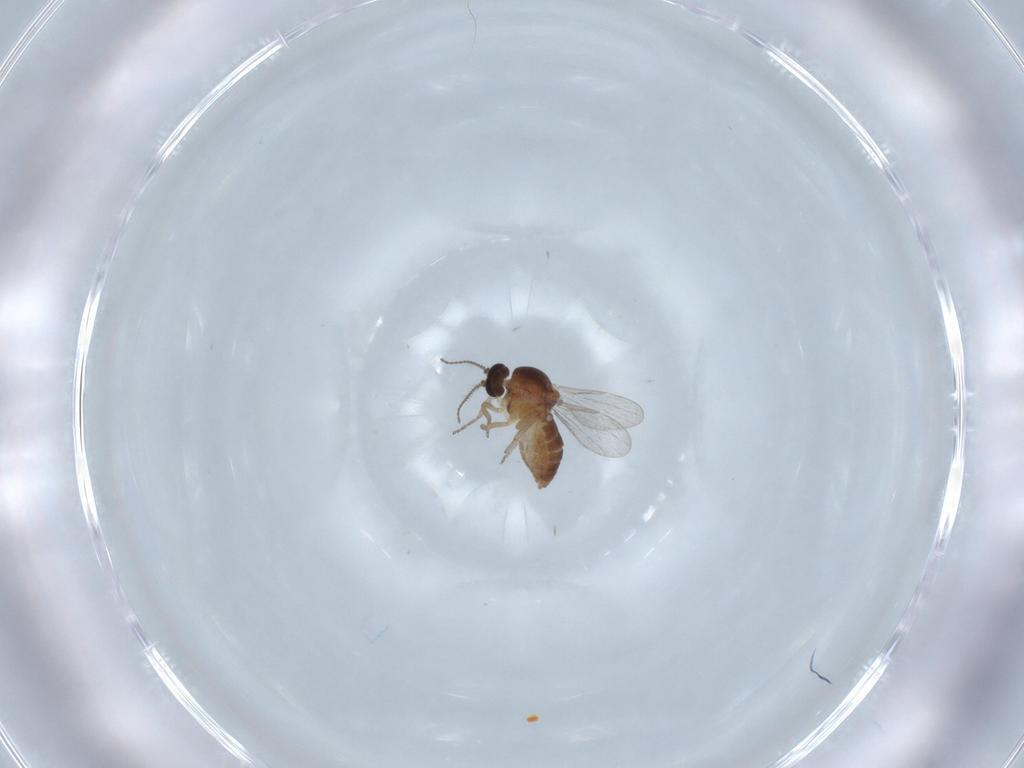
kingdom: Animalia
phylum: Arthropoda
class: Insecta
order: Diptera
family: Ceratopogonidae
